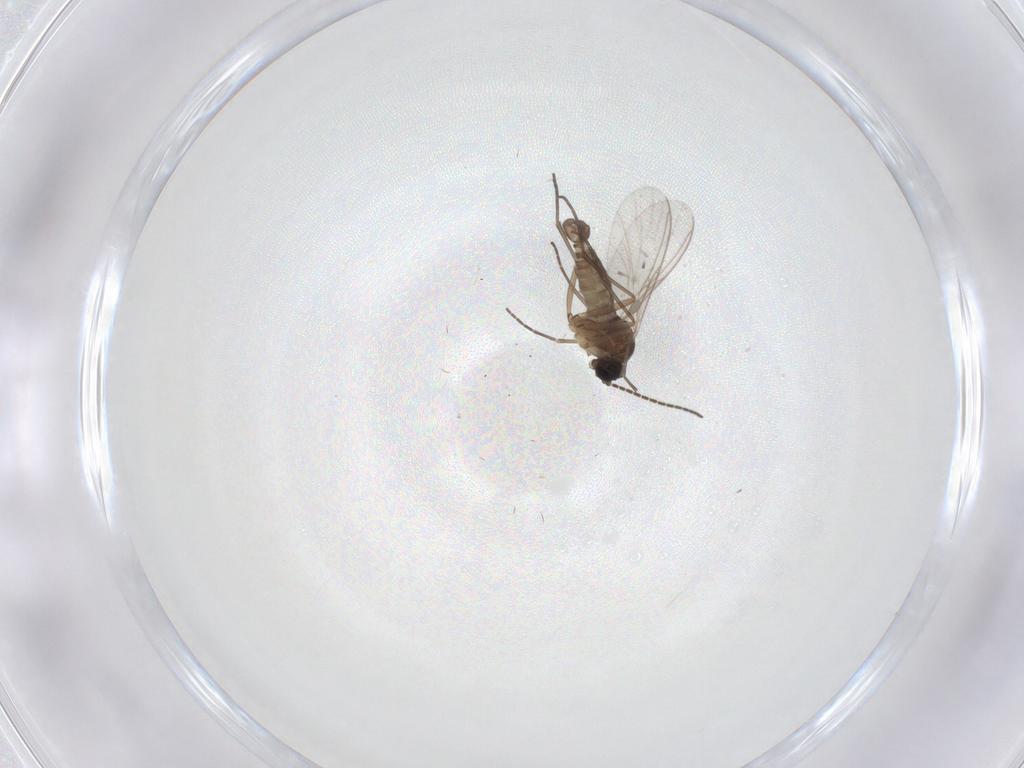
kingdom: Animalia
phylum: Arthropoda
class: Insecta
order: Diptera
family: Sciaridae
